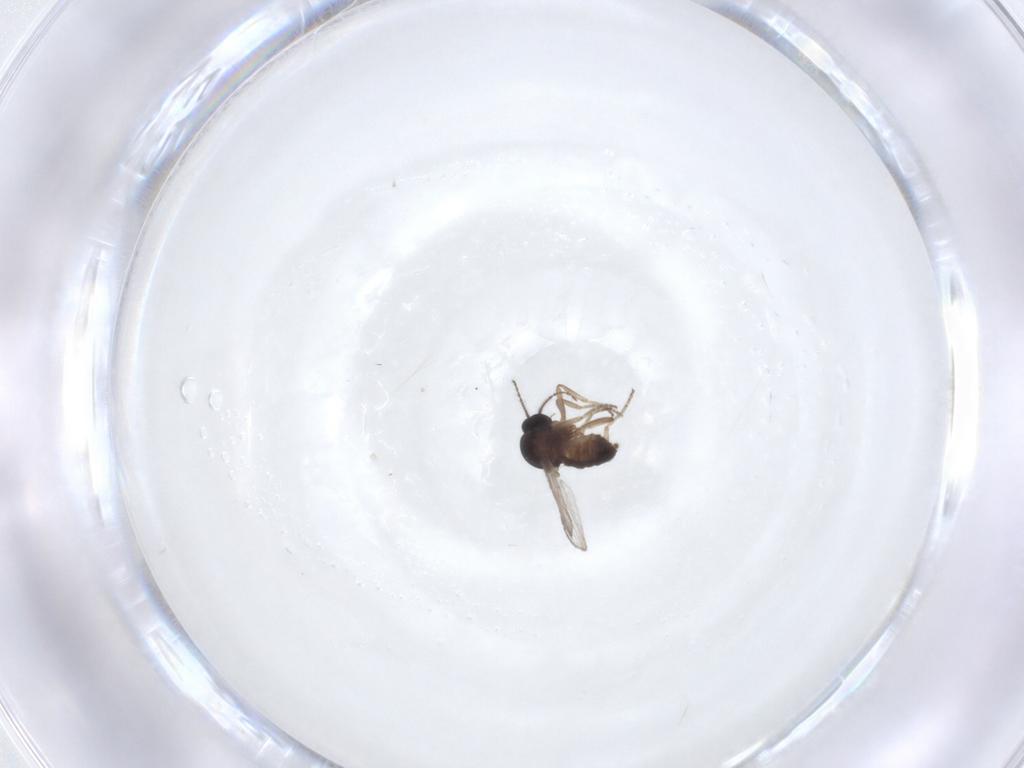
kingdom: Animalia
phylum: Arthropoda
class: Insecta
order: Diptera
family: Ceratopogonidae
